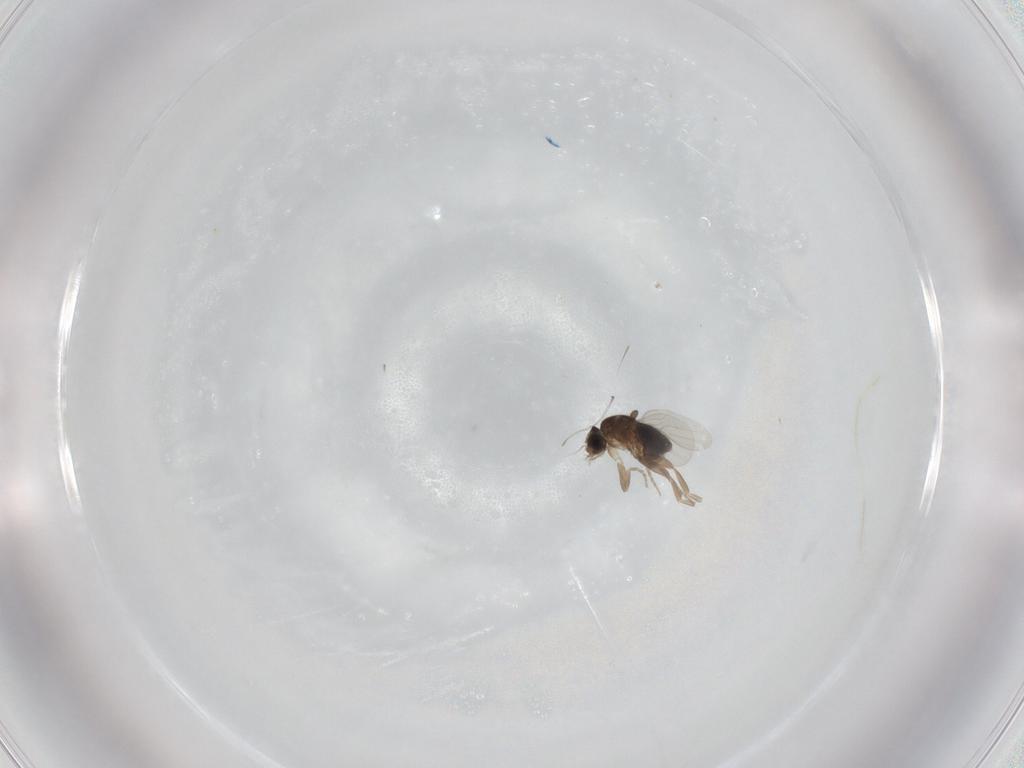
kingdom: Animalia
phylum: Arthropoda
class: Insecta
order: Diptera
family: Phoridae
